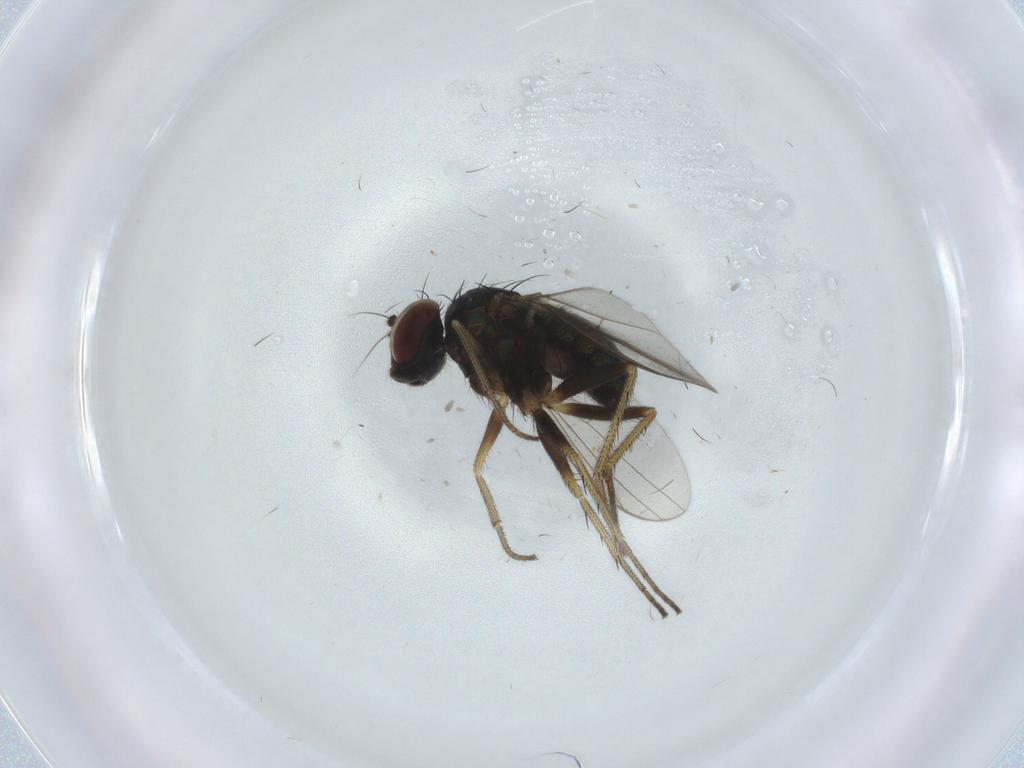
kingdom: Animalia
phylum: Arthropoda
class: Insecta
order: Diptera
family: Dolichopodidae
